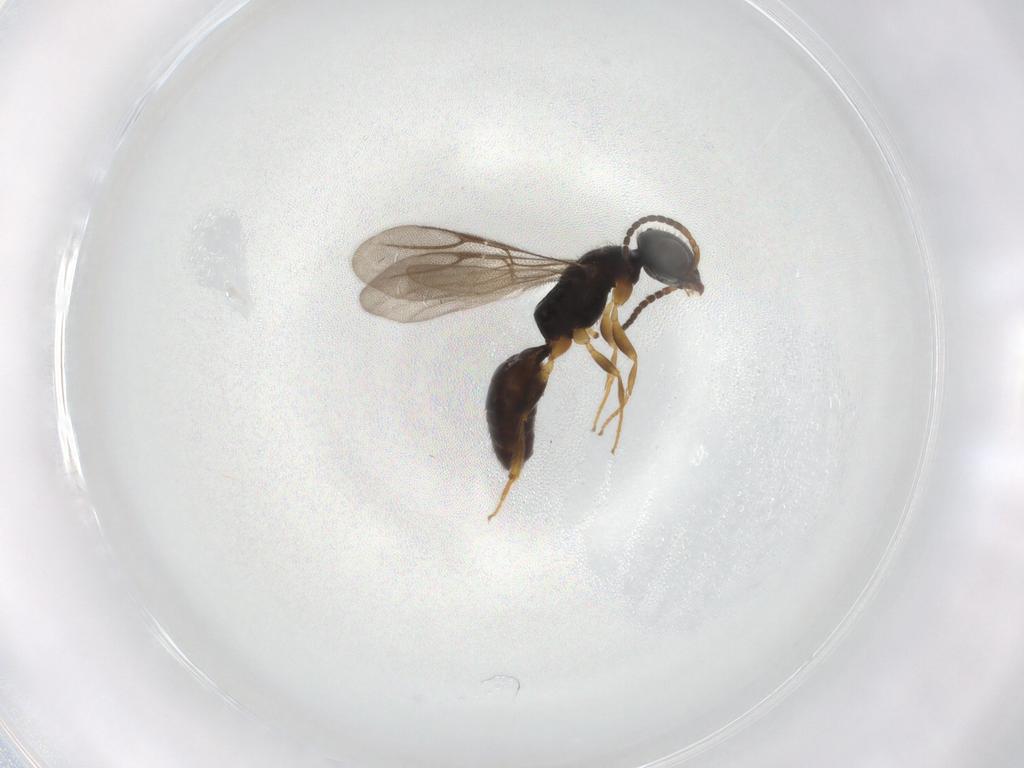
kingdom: Animalia
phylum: Arthropoda
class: Insecta
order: Hymenoptera
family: Bethylidae
